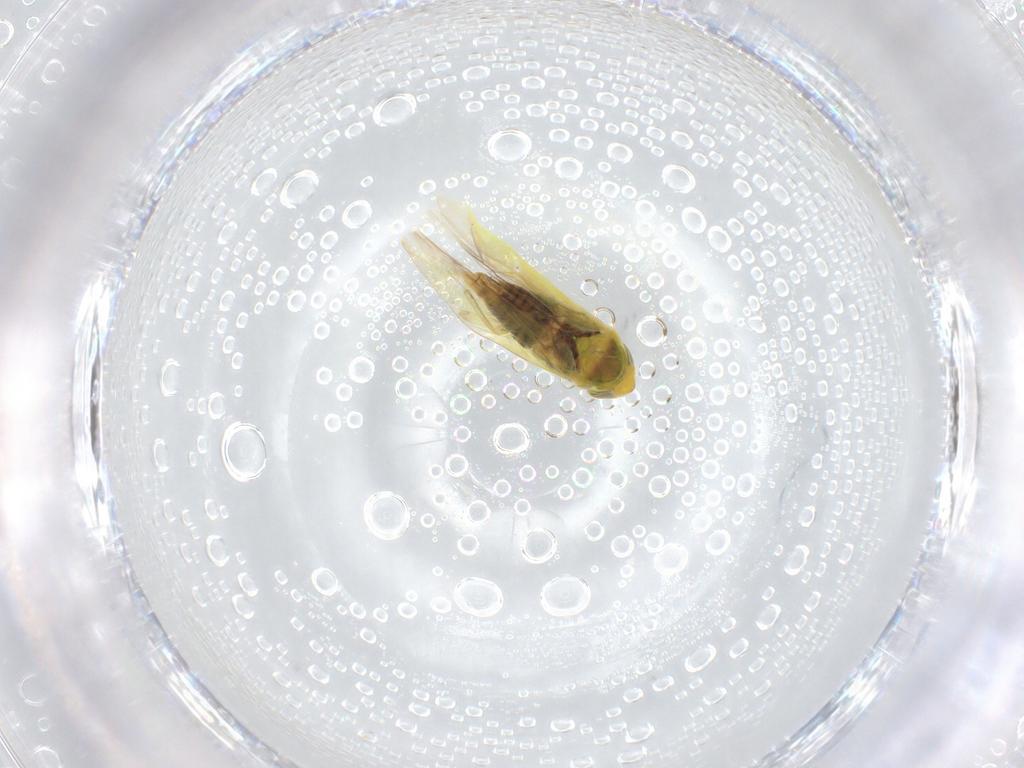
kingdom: Animalia
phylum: Arthropoda
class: Insecta
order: Hemiptera
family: Cicadellidae
